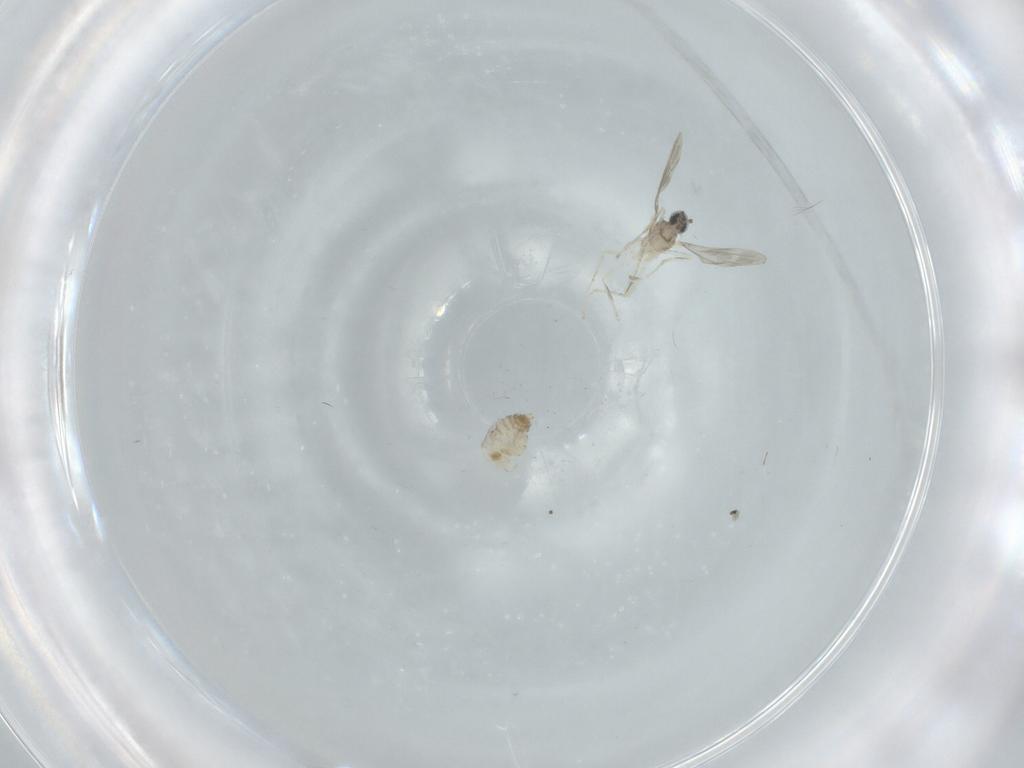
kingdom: Animalia
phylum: Arthropoda
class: Insecta
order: Diptera
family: Cecidomyiidae
